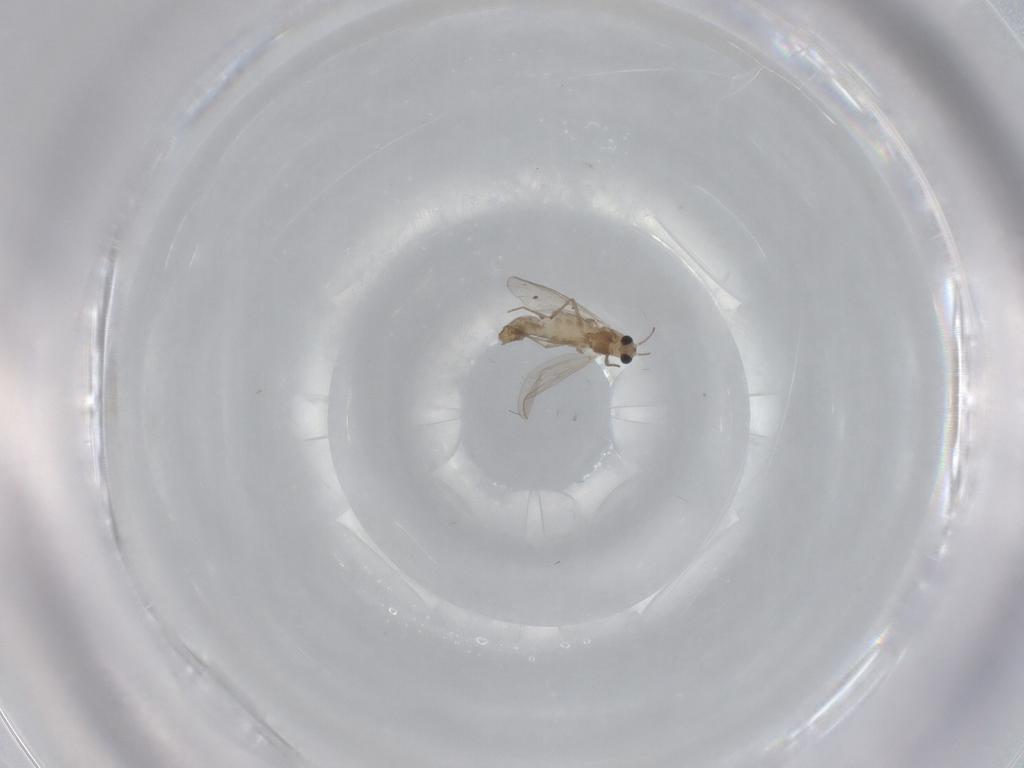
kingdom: Animalia
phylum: Arthropoda
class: Insecta
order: Diptera
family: Chironomidae
